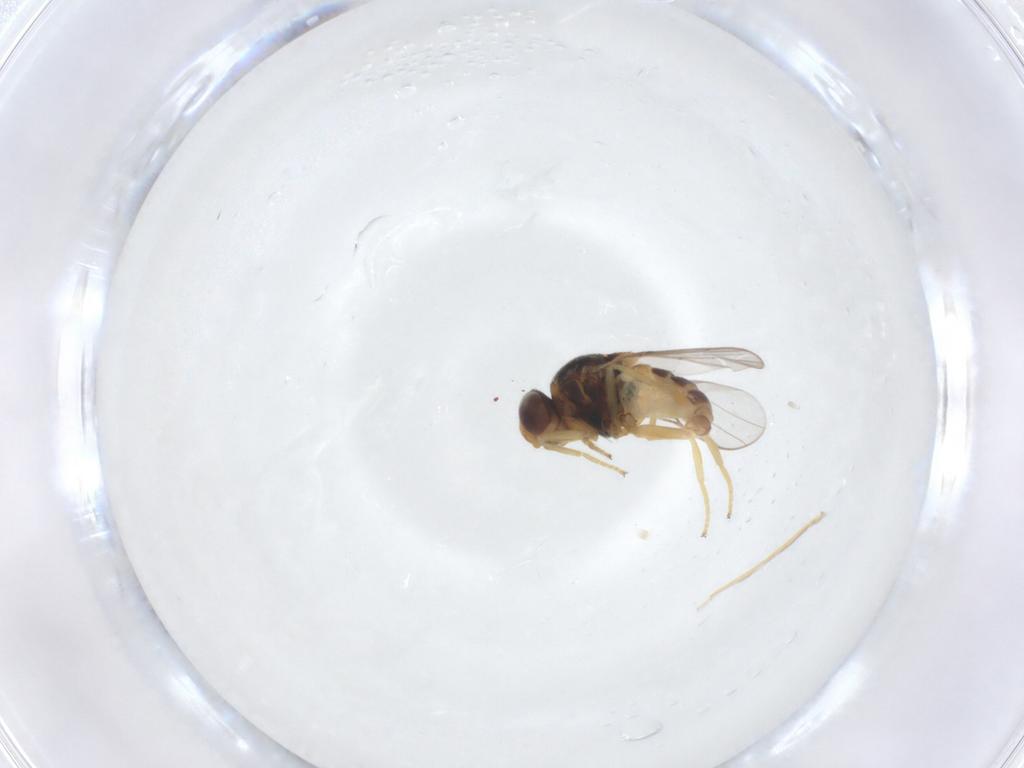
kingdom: Animalia
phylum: Arthropoda
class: Insecta
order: Diptera
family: Chloropidae
